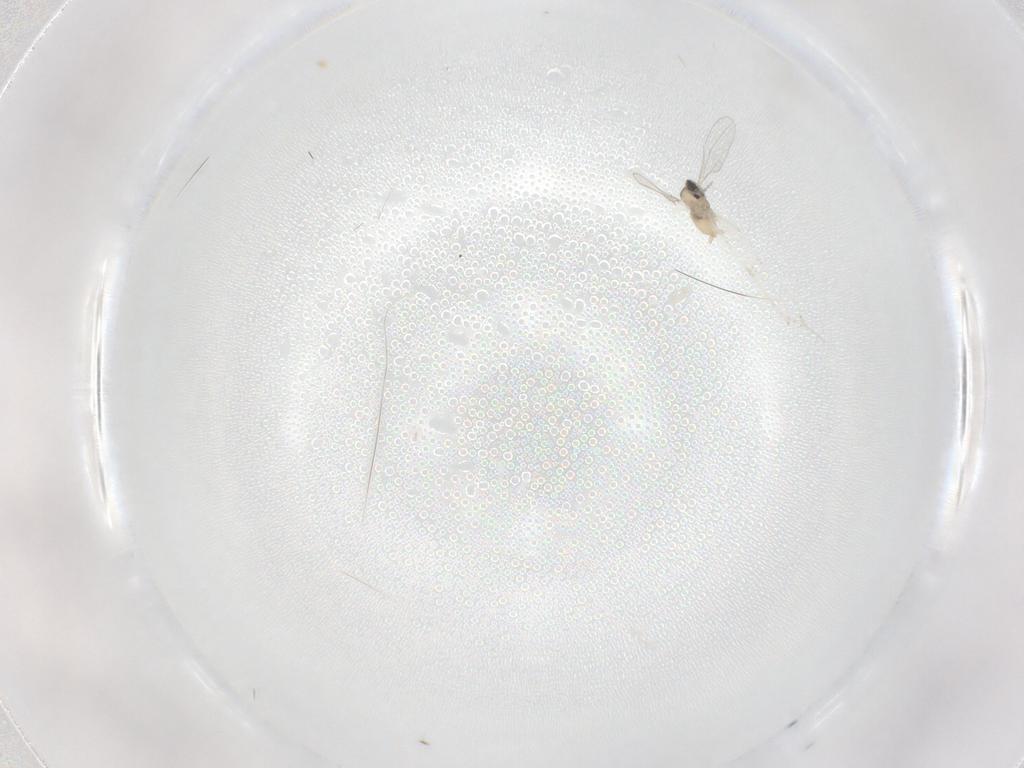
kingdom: Animalia
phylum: Arthropoda
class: Insecta
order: Diptera
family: Cecidomyiidae
